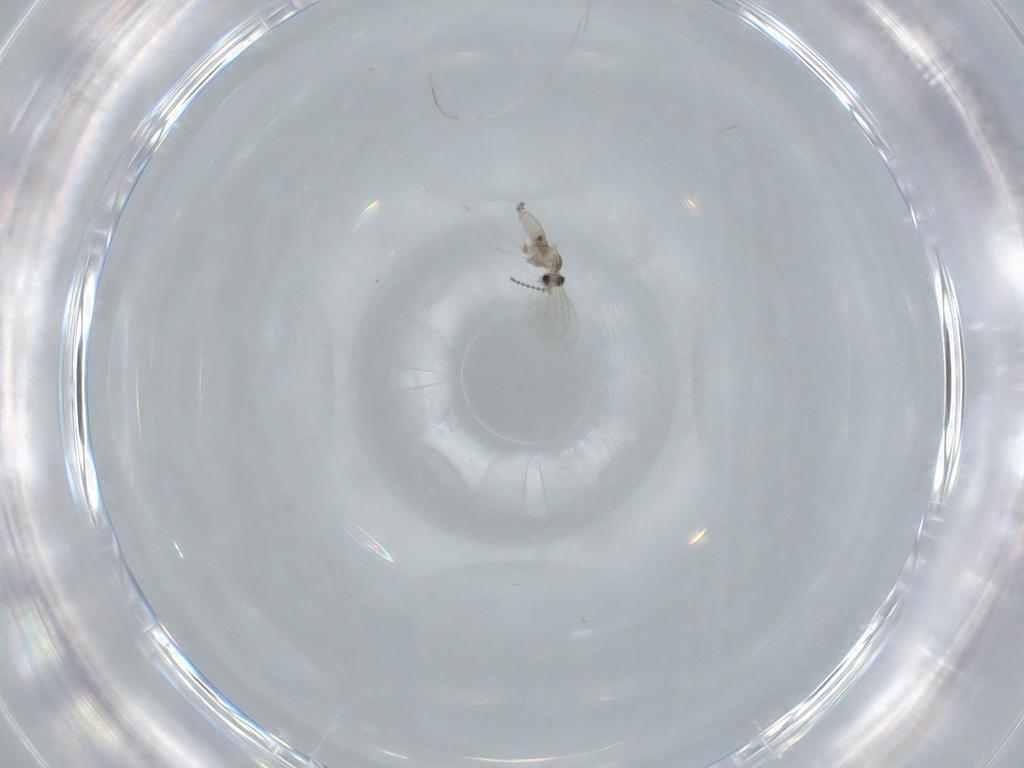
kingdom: Animalia
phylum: Arthropoda
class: Insecta
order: Diptera
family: Cecidomyiidae
